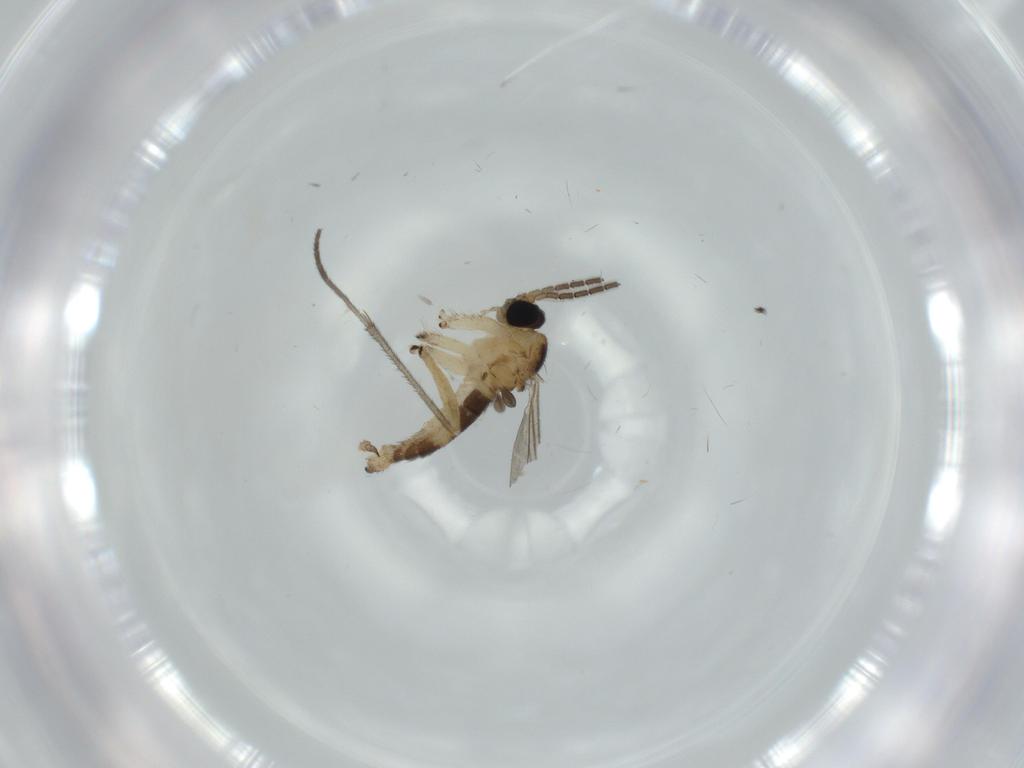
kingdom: Animalia
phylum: Arthropoda
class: Insecta
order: Diptera
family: Sciaridae
